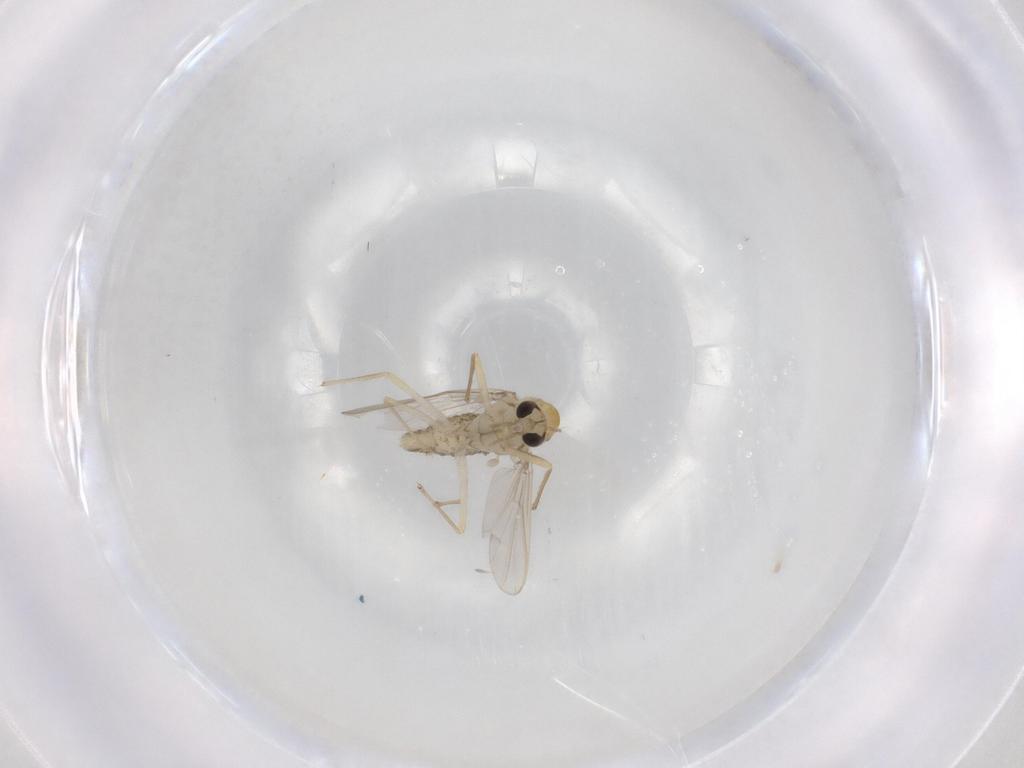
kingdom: Animalia
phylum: Arthropoda
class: Insecta
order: Diptera
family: Chironomidae
